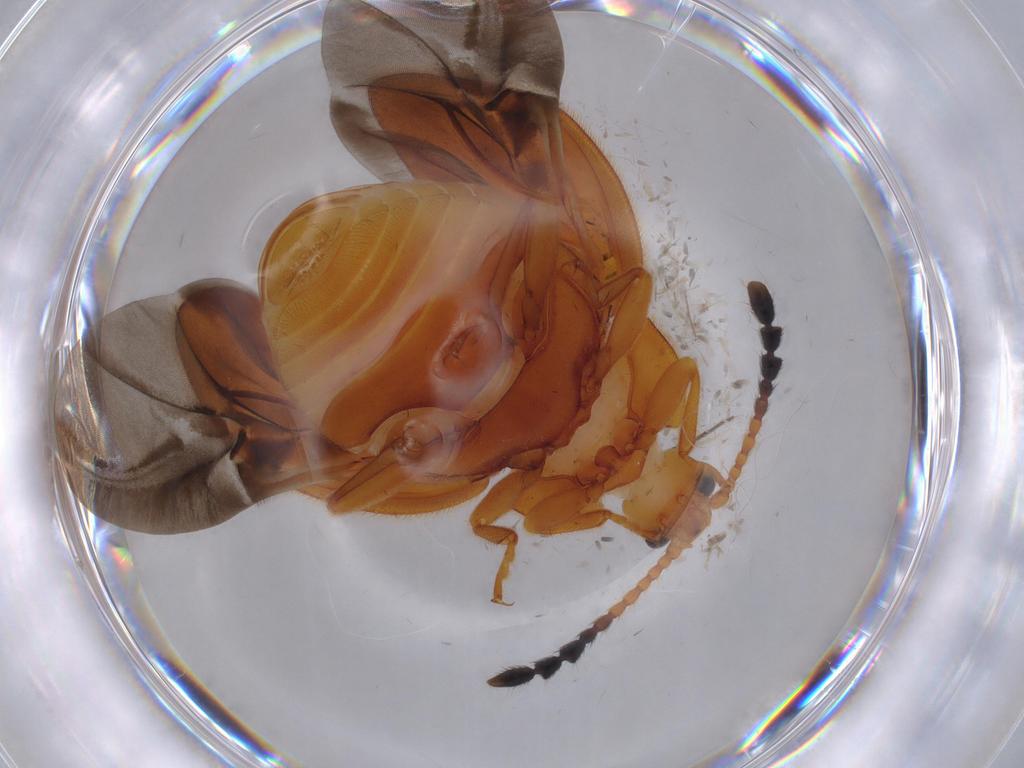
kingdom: Animalia
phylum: Arthropoda
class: Insecta
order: Coleoptera
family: Endomychidae
